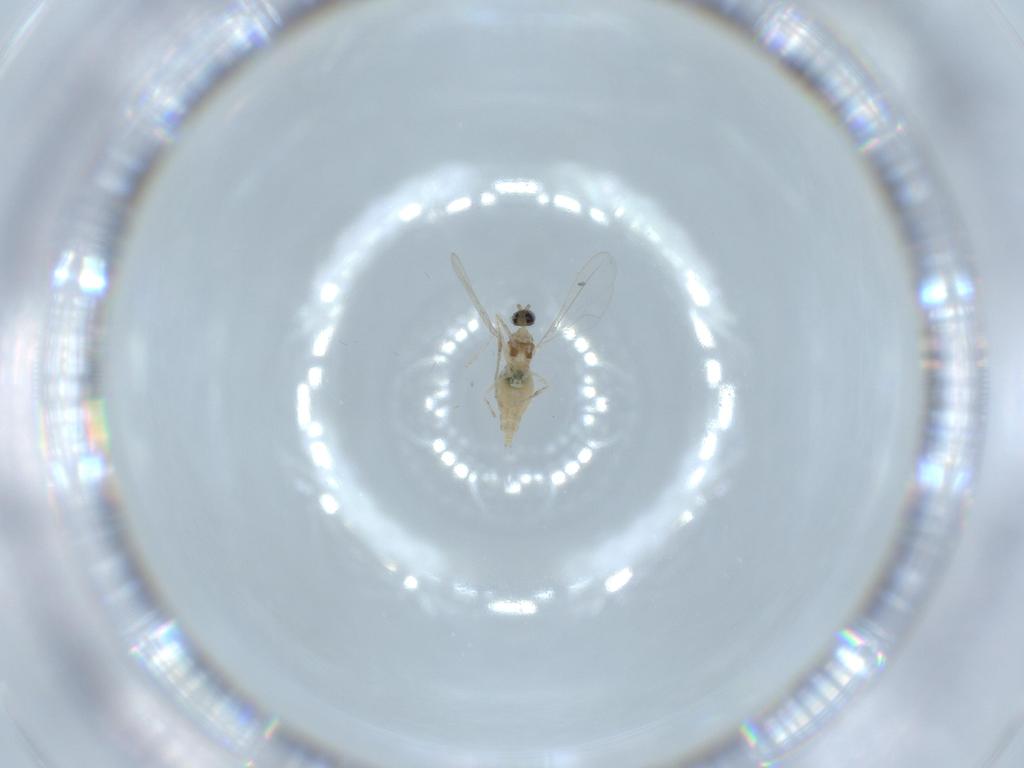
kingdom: Animalia
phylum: Arthropoda
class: Insecta
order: Diptera
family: Cecidomyiidae
